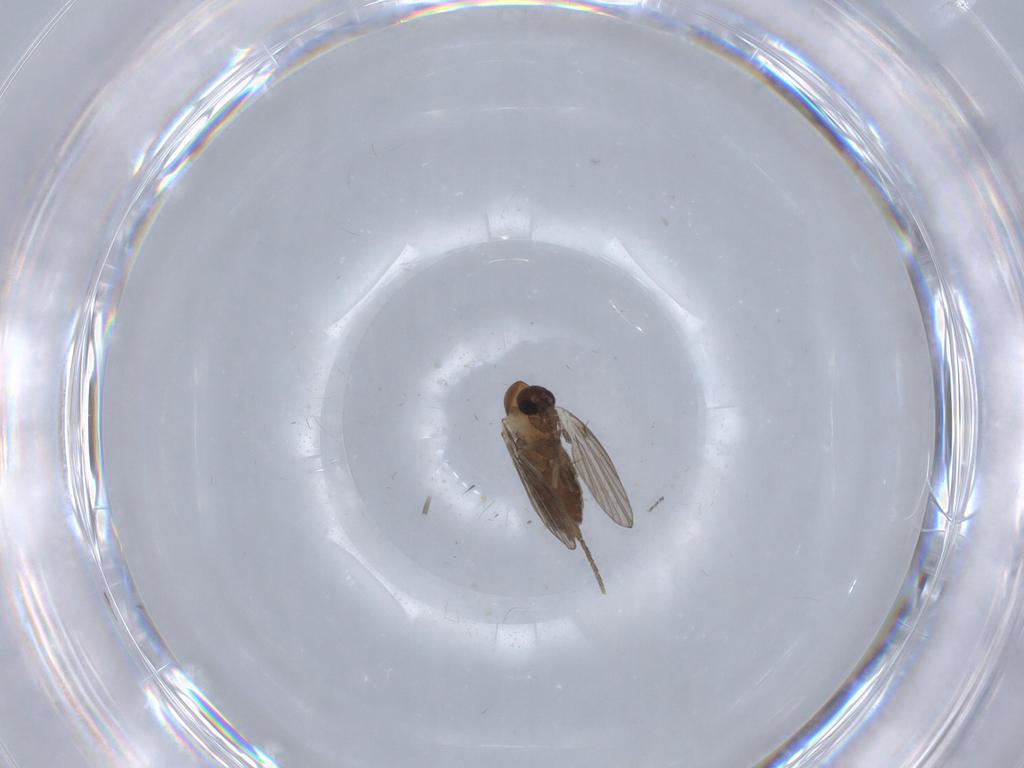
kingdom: Animalia
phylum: Arthropoda
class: Insecta
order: Diptera
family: Psychodidae
